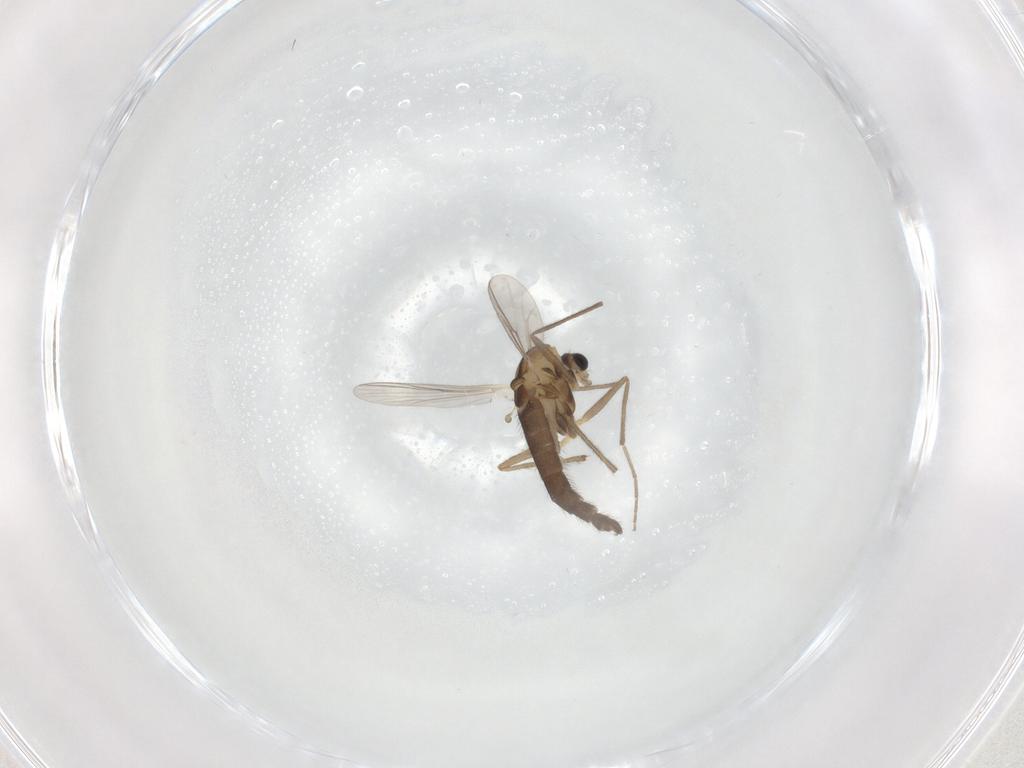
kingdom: Animalia
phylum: Arthropoda
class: Insecta
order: Diptera
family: Chironomidae
